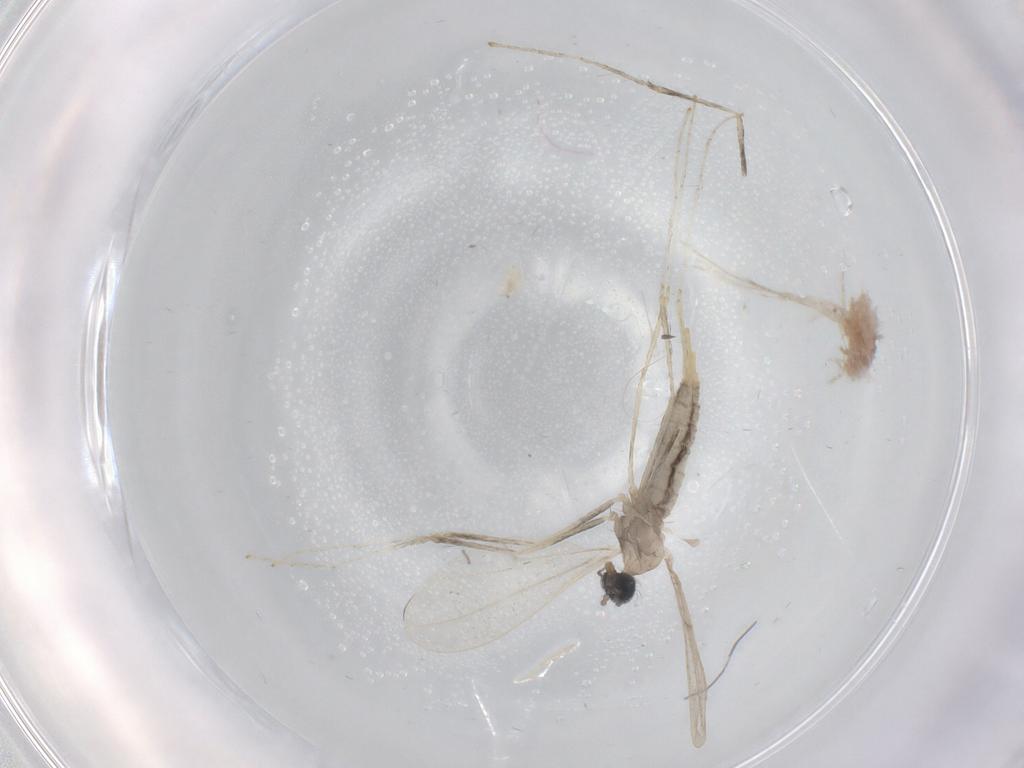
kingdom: Animalia
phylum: Arthropoda
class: Insecta
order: Diptera
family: Cecidomyiidae
